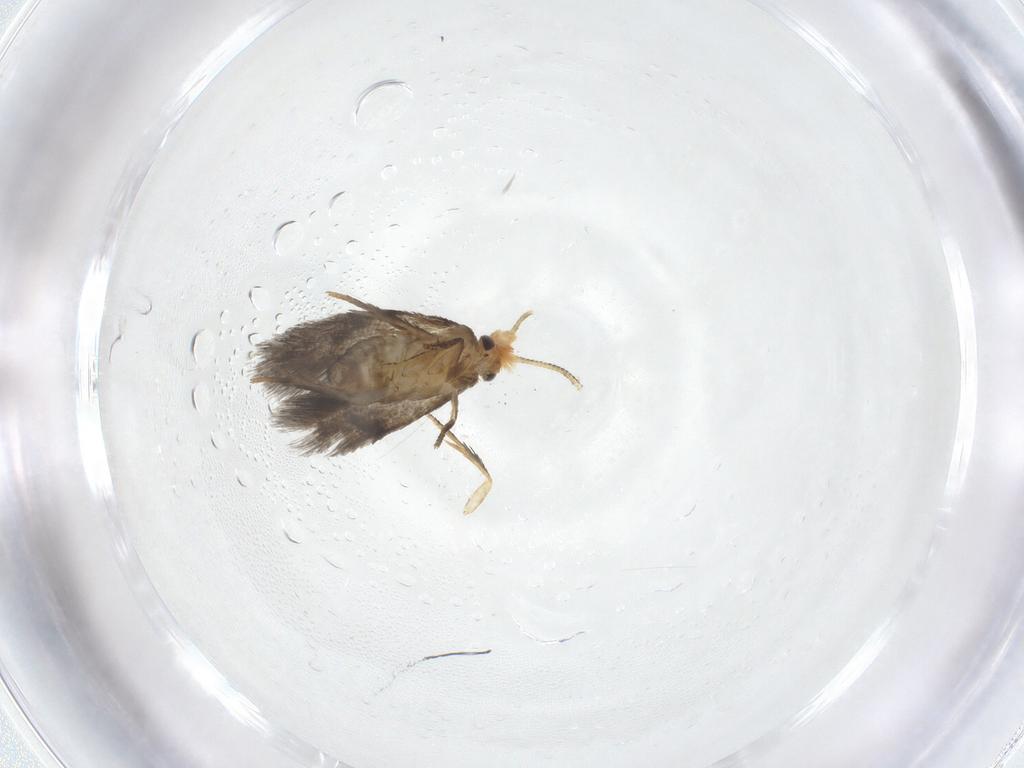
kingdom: Animalia
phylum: Arthropoda
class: Insecta
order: Lepidoptera
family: Nepticulidae
